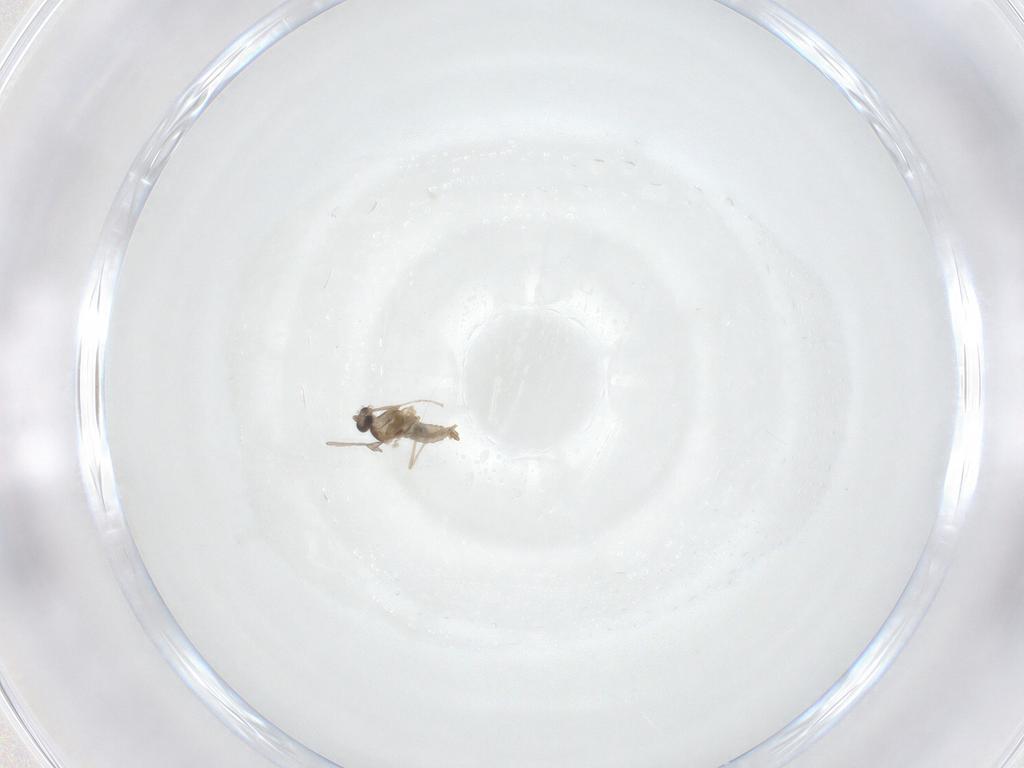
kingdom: Animalia
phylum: Arthropoda
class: Insecta
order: Diptera
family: Cecidomyiidae
